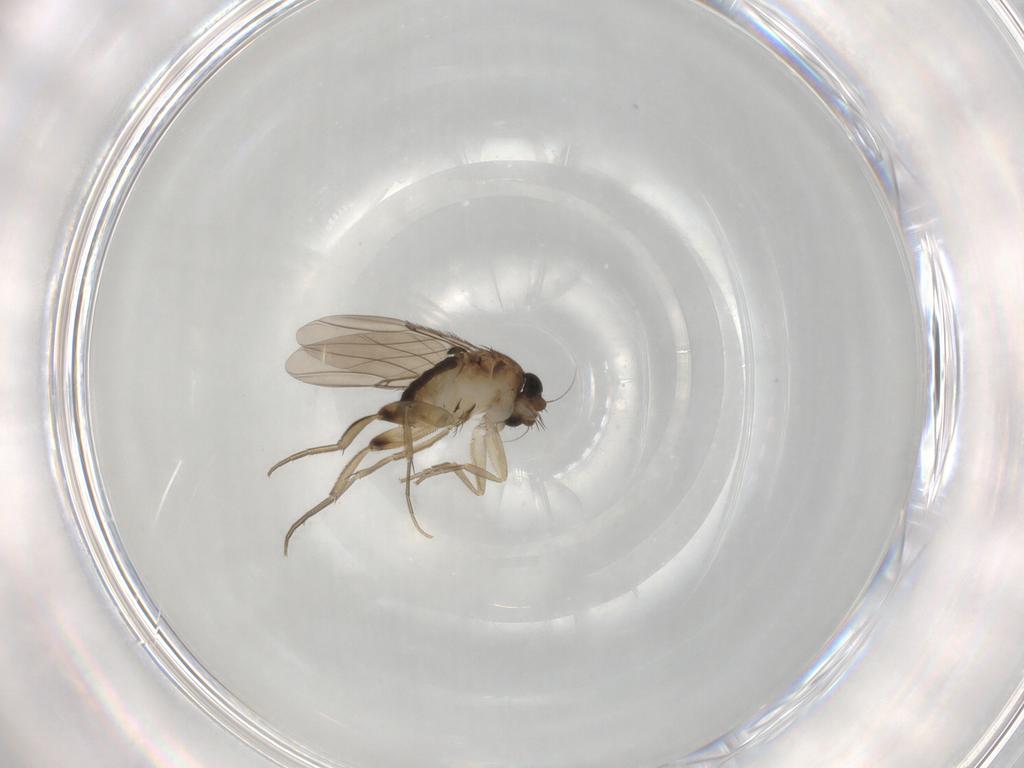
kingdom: Animalia
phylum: Arthropoda
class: Insecta
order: Diptera
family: Phoridae
